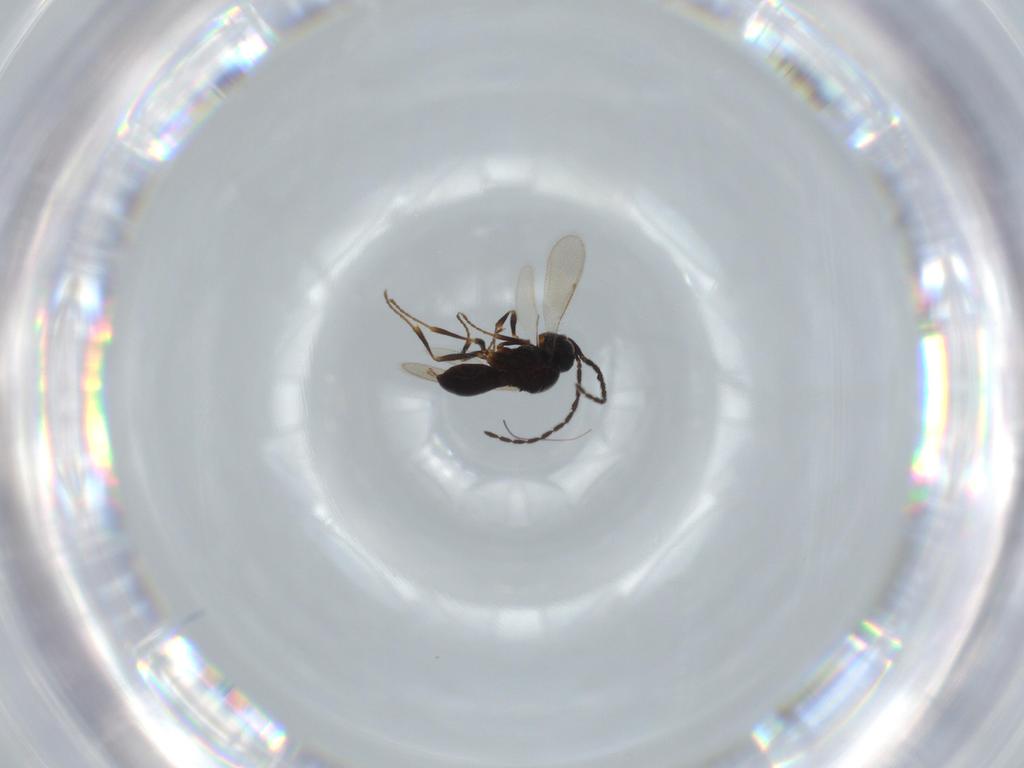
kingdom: Animalia
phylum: Arthropoda
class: Insecta
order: Hymenoptera
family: Scelionidae
